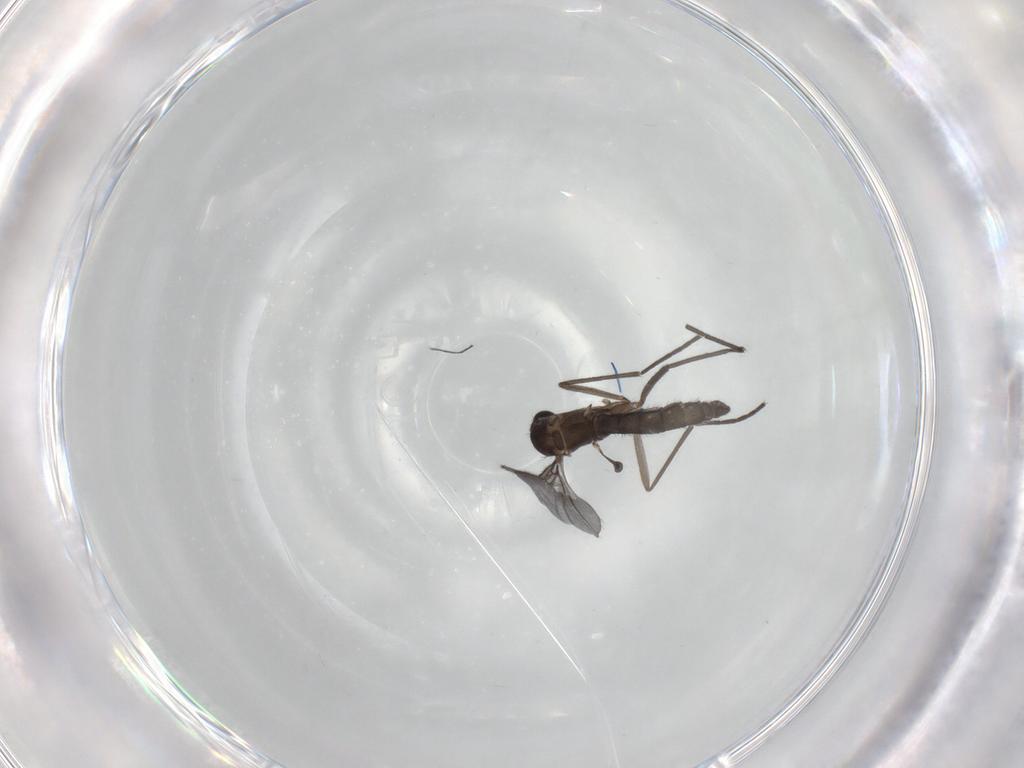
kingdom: Animalia
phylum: Arthropoda
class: Insecta
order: Diptera
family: Sciaridae
